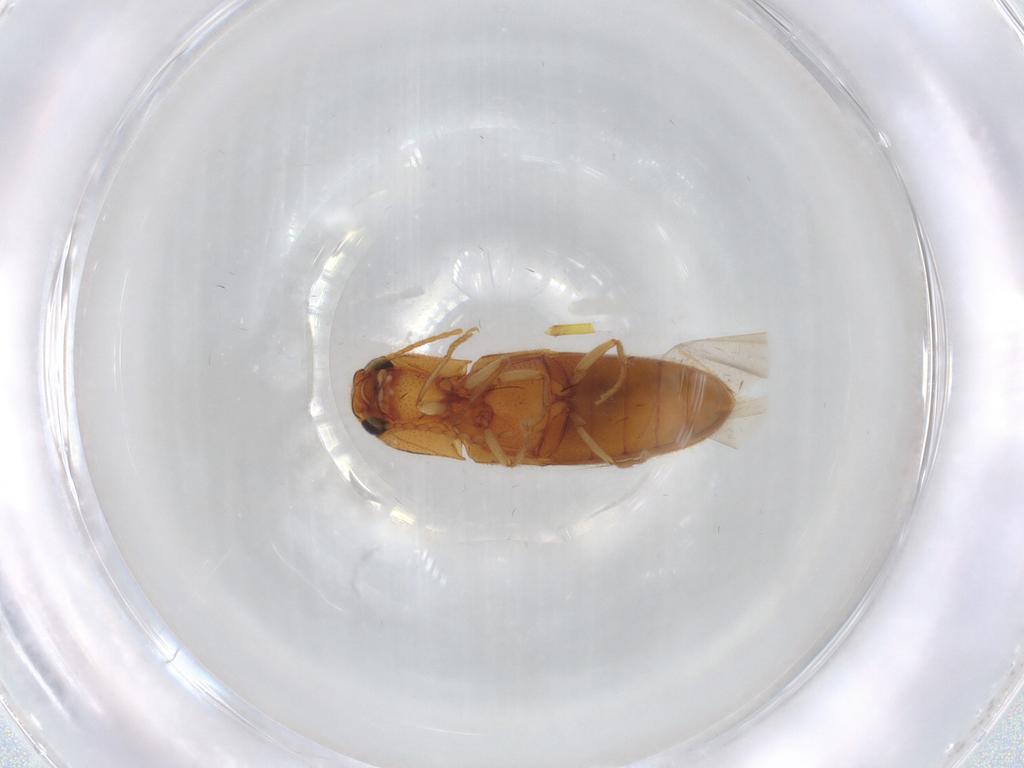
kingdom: Animalia
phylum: Arthropoda
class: Insecta
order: Coleoptera
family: Elateridae
